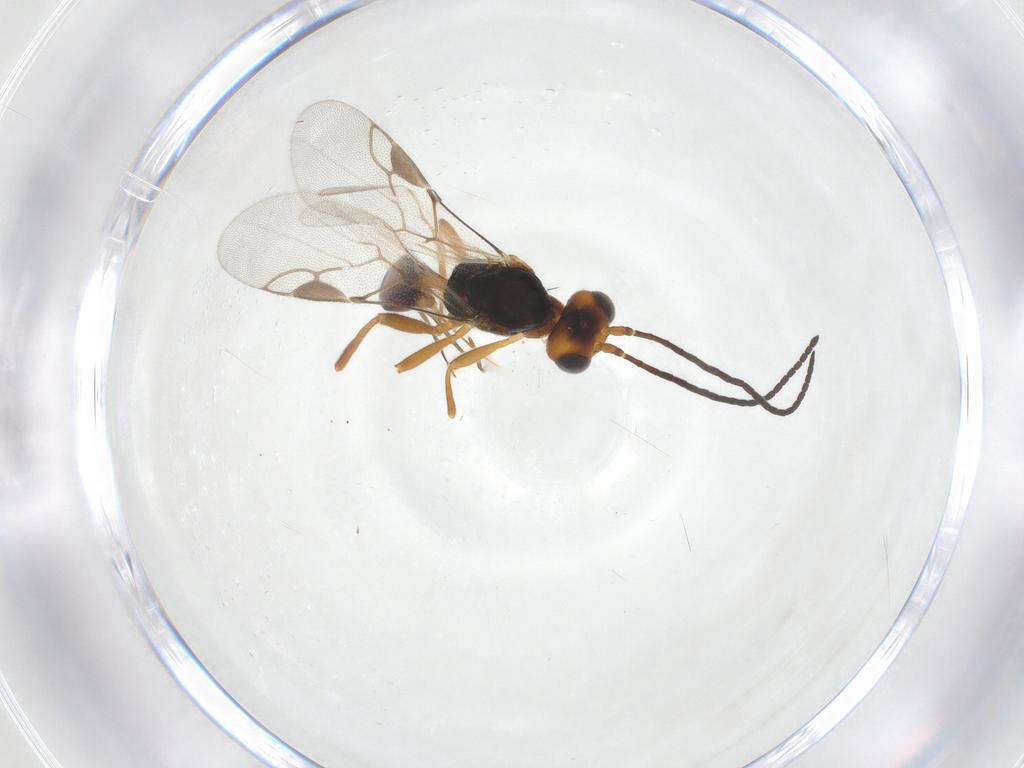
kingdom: Animalia
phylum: Arthropoda
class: Insecta
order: Hymenoptera
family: Braconidae
